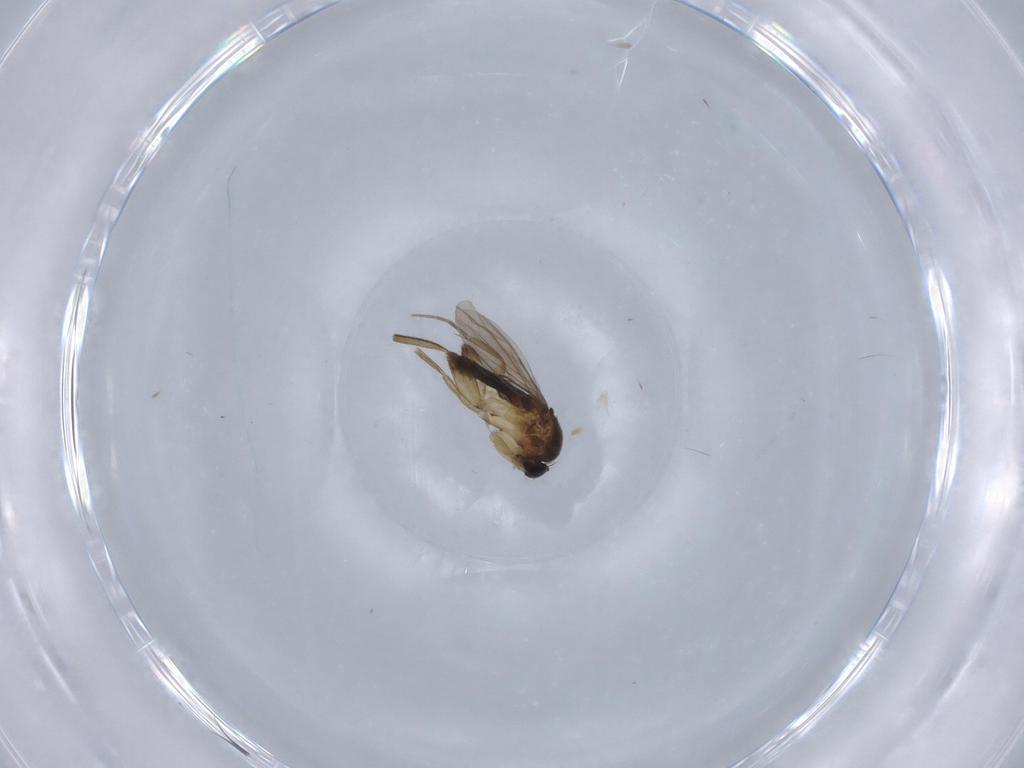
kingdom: Animalia
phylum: Arthropoda
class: Insecta
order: Diptera
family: Phoridae
